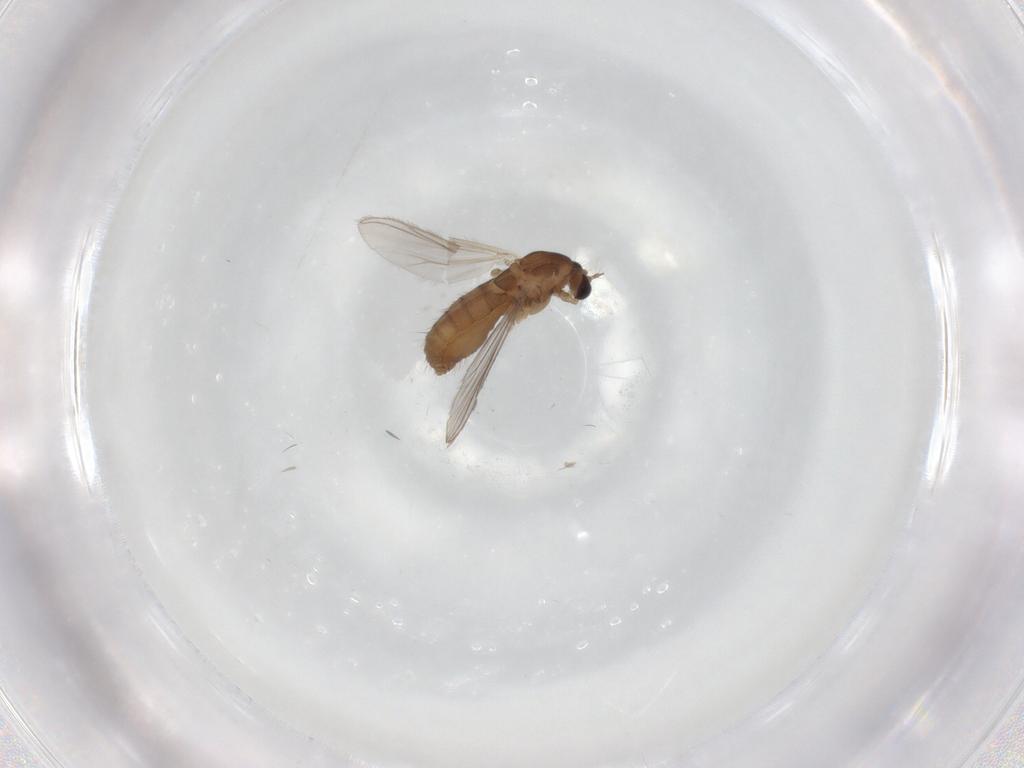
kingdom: Animalia
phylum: Arthropoda
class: Insecta
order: Diptera
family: Chironomidae
